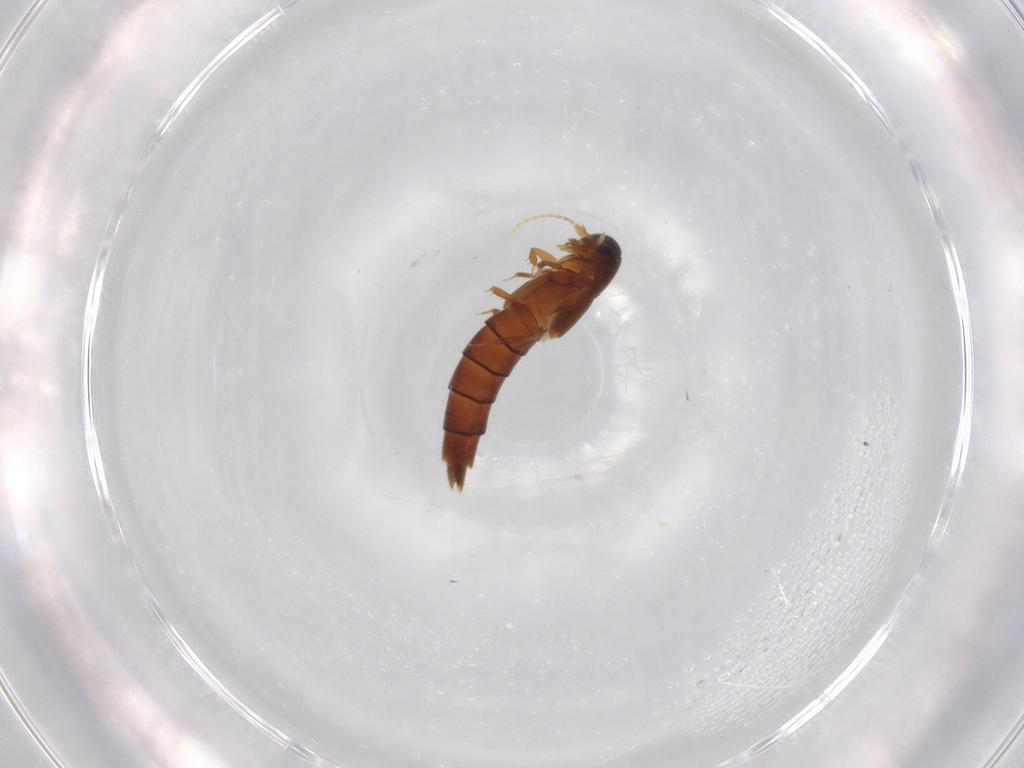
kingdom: Animalia
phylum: Arthropoda
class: Insecta
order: Coleoptera
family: Staphylinidae
